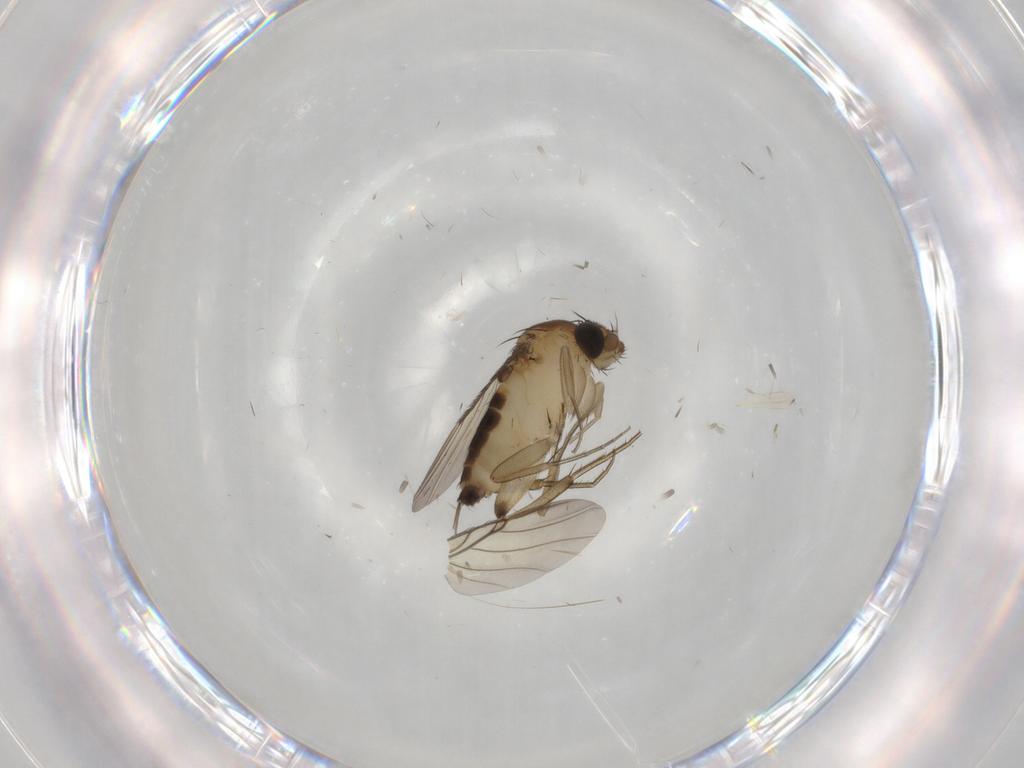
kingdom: Animalia
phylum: Arthropoda
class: Insecta
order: Diptera
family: Phoridae
